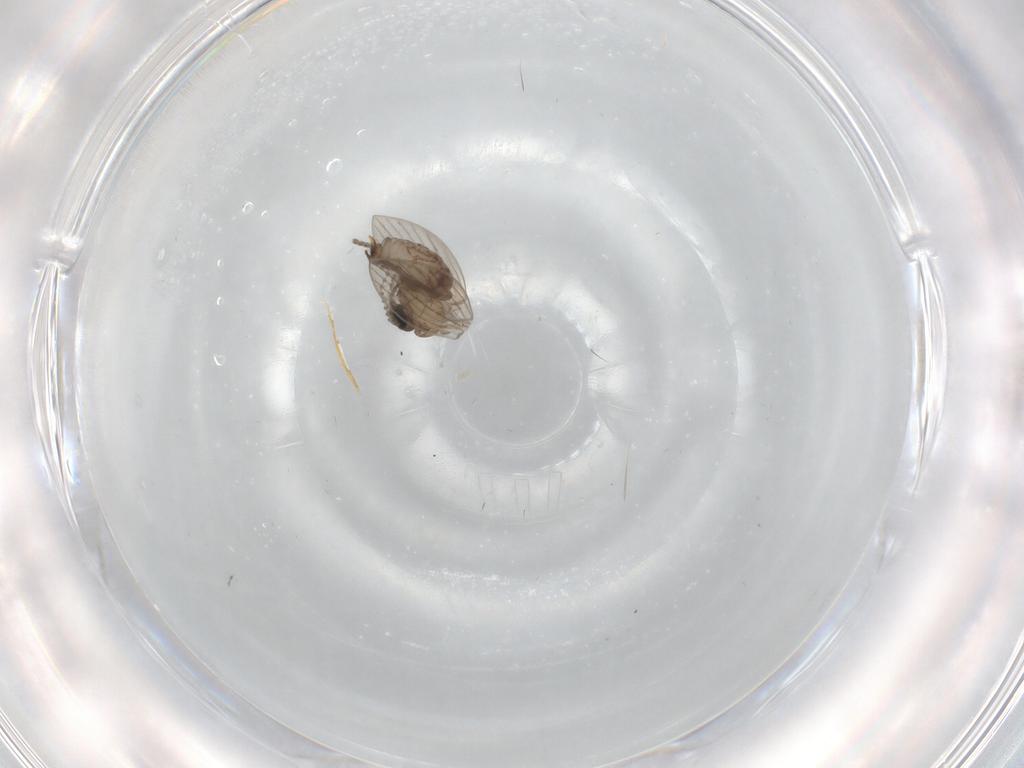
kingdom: Animalia
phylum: Arthropoda
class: Insecta
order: Diptera
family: Psychodidae
